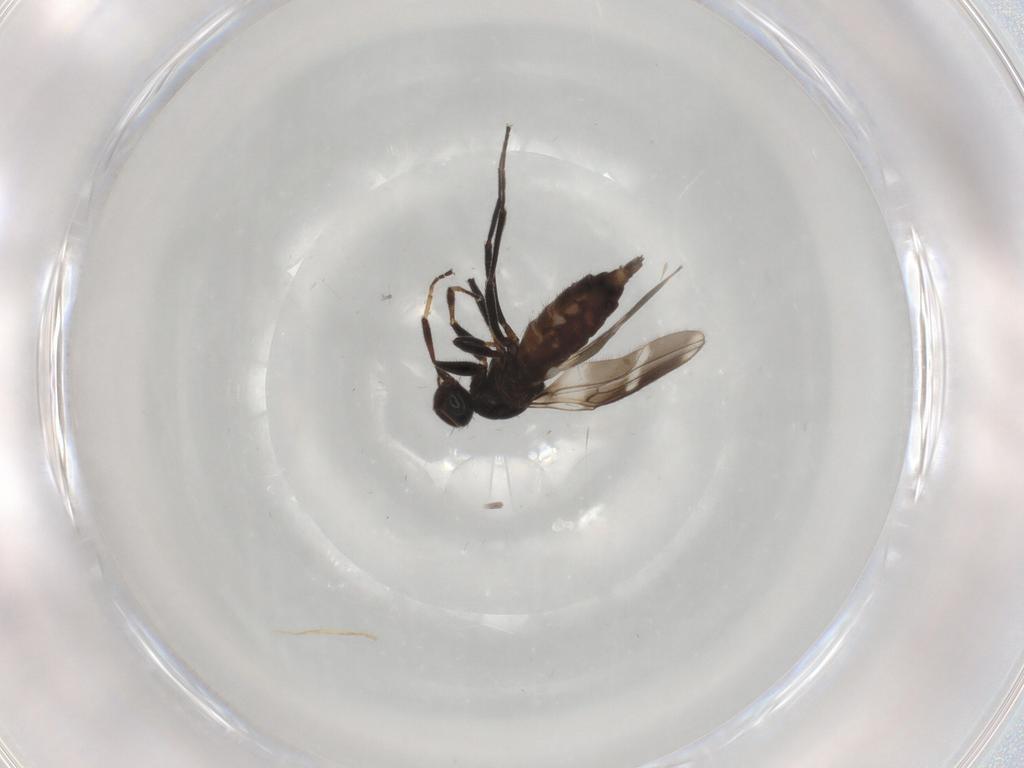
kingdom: Animalia
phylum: Arthropoda
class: Insecta
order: Diptera
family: Hybotidae
